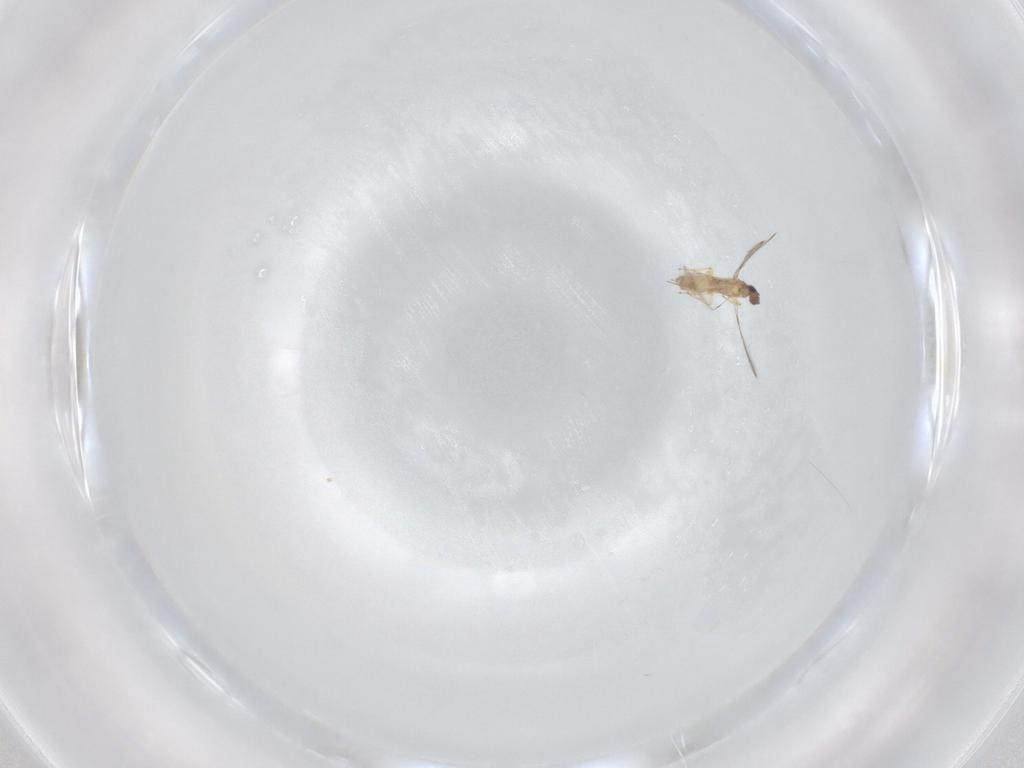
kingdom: Animalia
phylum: Arthropoda
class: Insecta
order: Hymenoptera
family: Mymaridae
